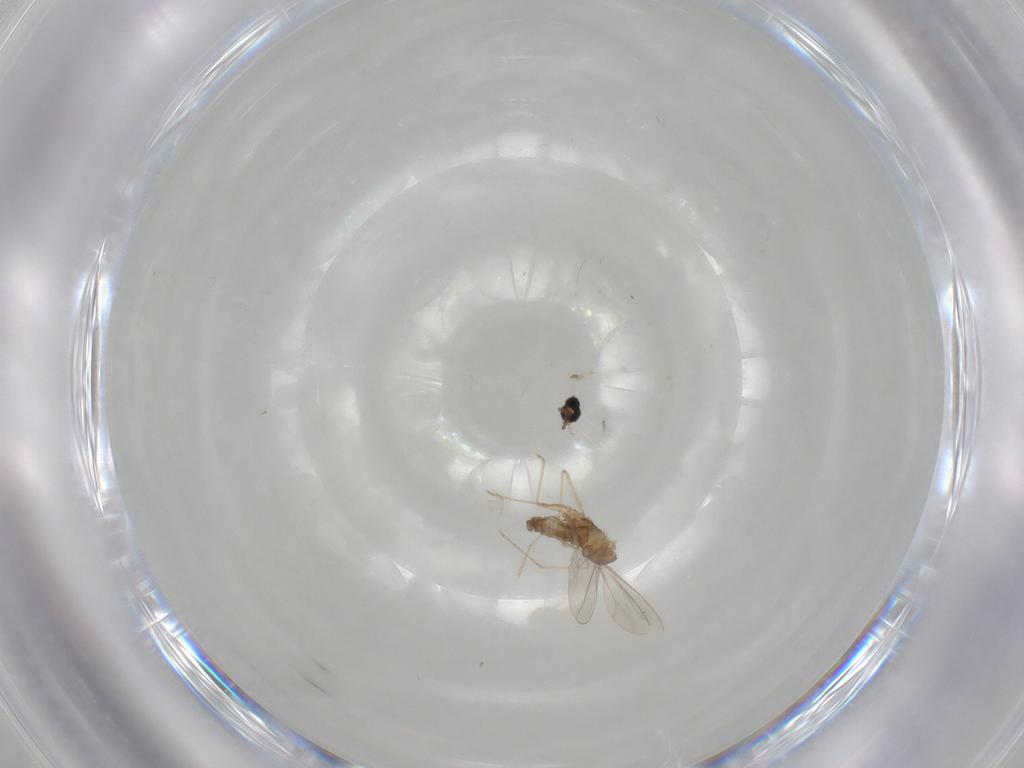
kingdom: Animalia
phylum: Arthropoda
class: Insecta
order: Diptera
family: Cecidomyiidae
